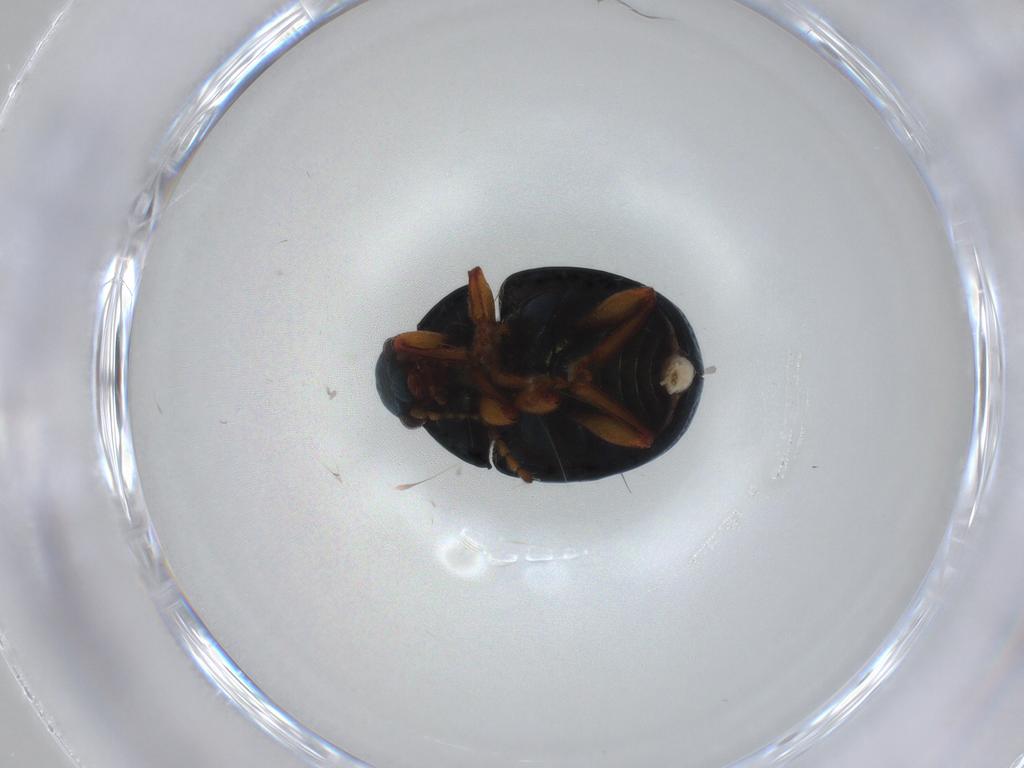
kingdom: Animalia
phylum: Arthropoda
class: Insecta
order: Coleoptera
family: Chrysomelidae
